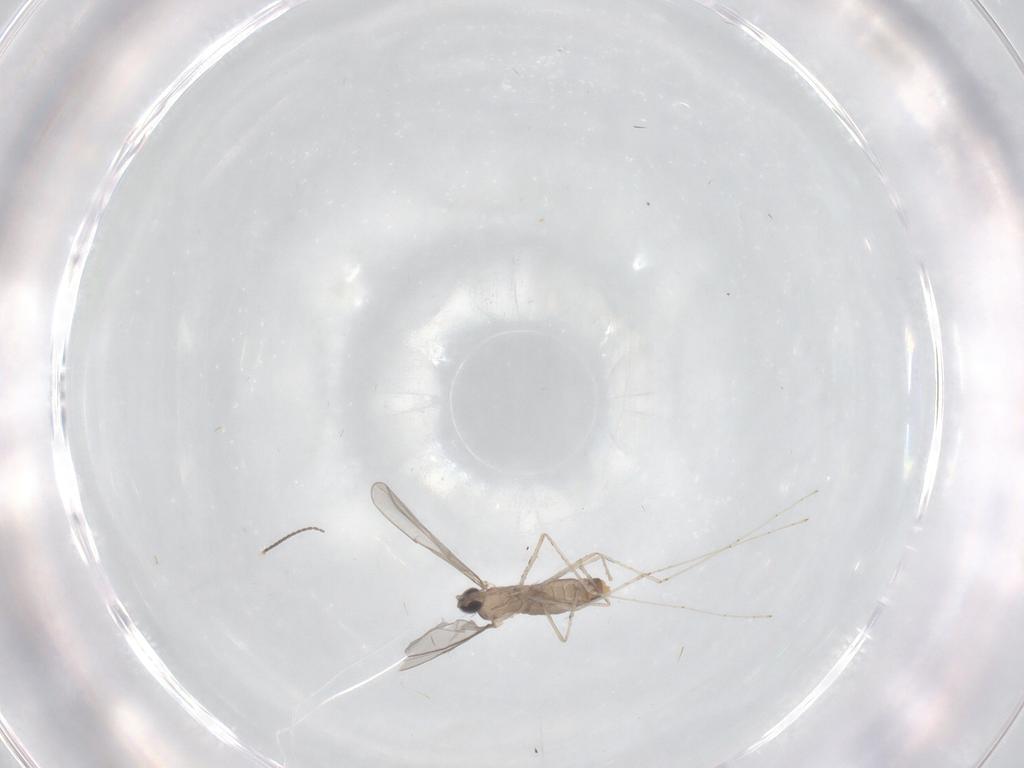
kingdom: Animalia
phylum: Arthropoda
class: Insecta
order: Diptera
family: Cecidomyiidae
